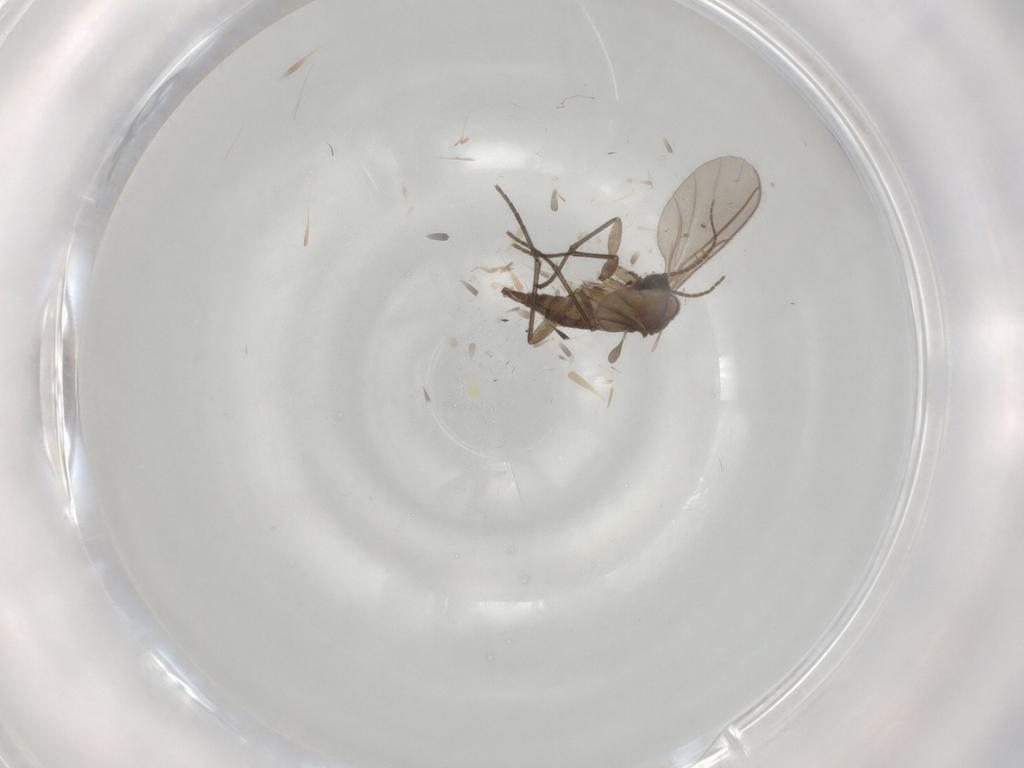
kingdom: Animalia
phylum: Arthropoda
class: Insecta
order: Diptera
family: Sciaridae
